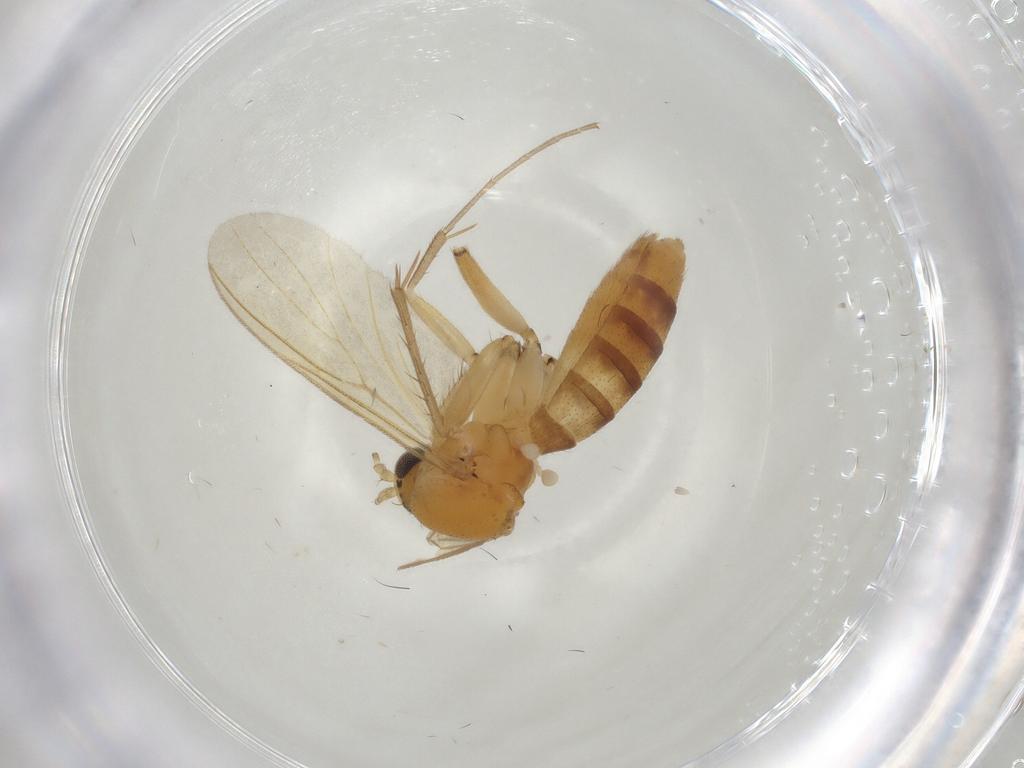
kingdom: Animalia
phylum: Arthropoda
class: Insecta
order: Diptera
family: Mycetophilidae
